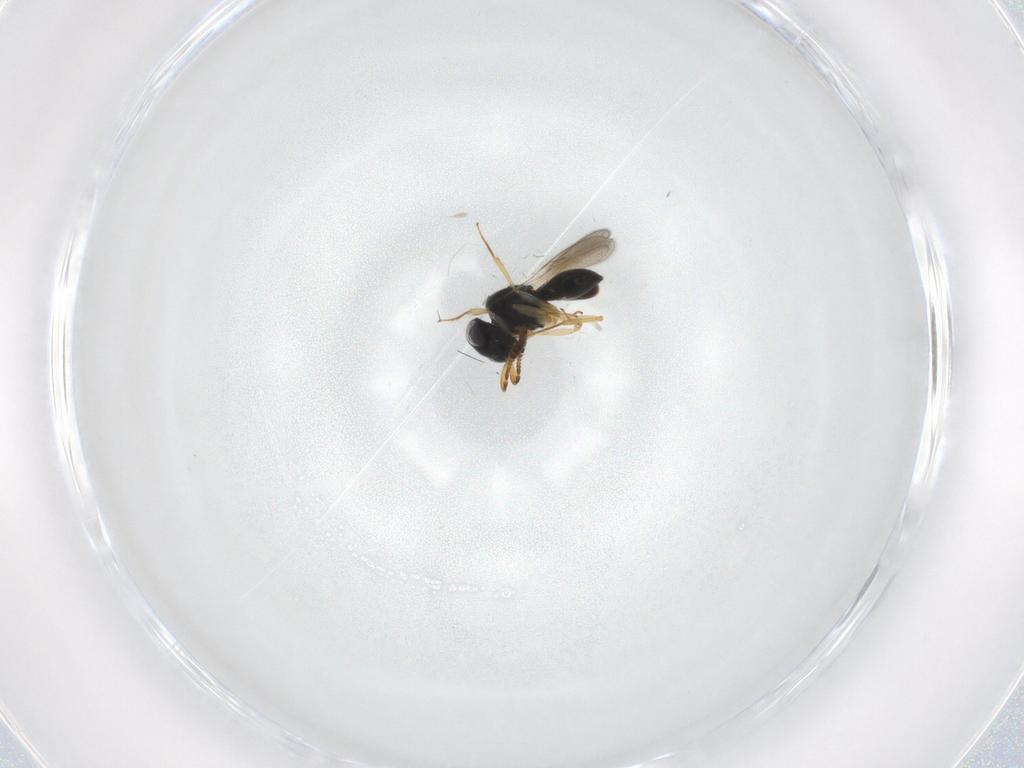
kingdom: Animalia
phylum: Arthropoda
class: Insecta
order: Hymenoptera
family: Scelionidae
